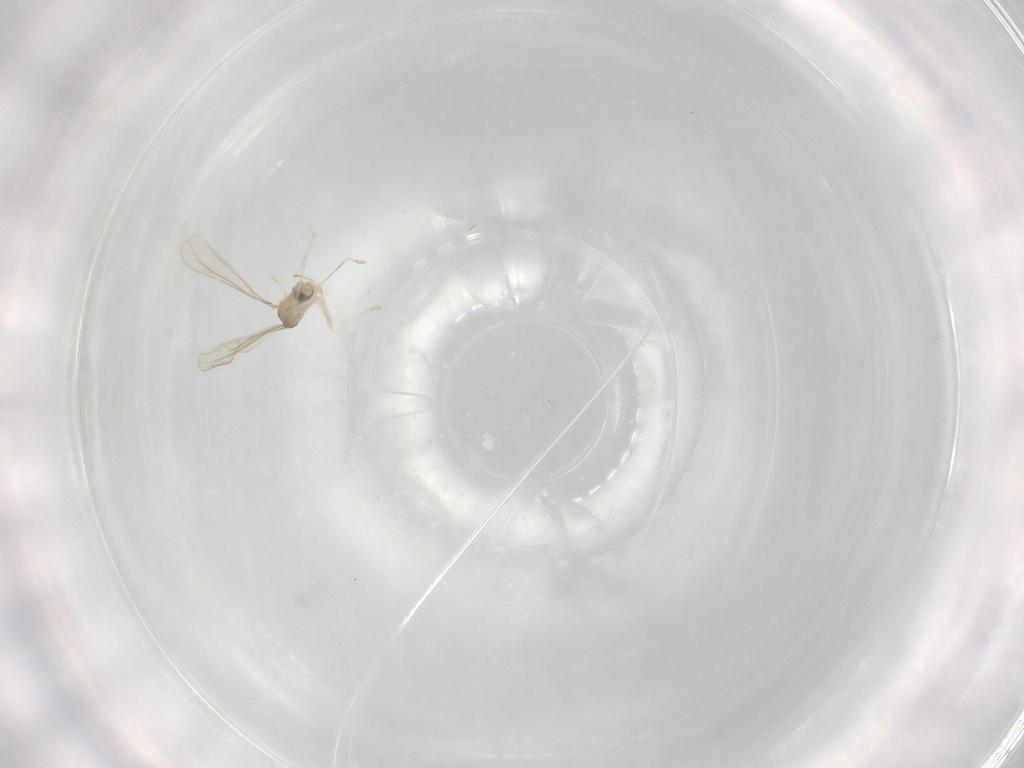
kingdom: Animalia
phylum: Arthropoda
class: Insecta
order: Diptera
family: Cecidomyiidae
